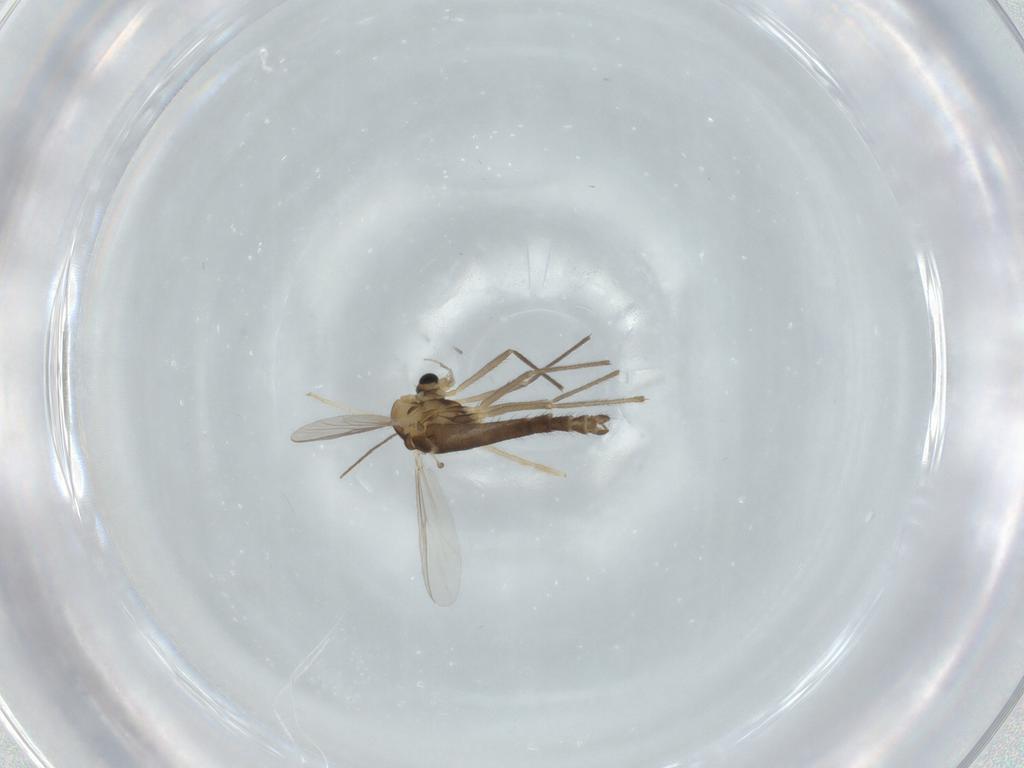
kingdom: Animalia
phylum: Arthropoda
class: Insecta
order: Diptera
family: Chironomidae
